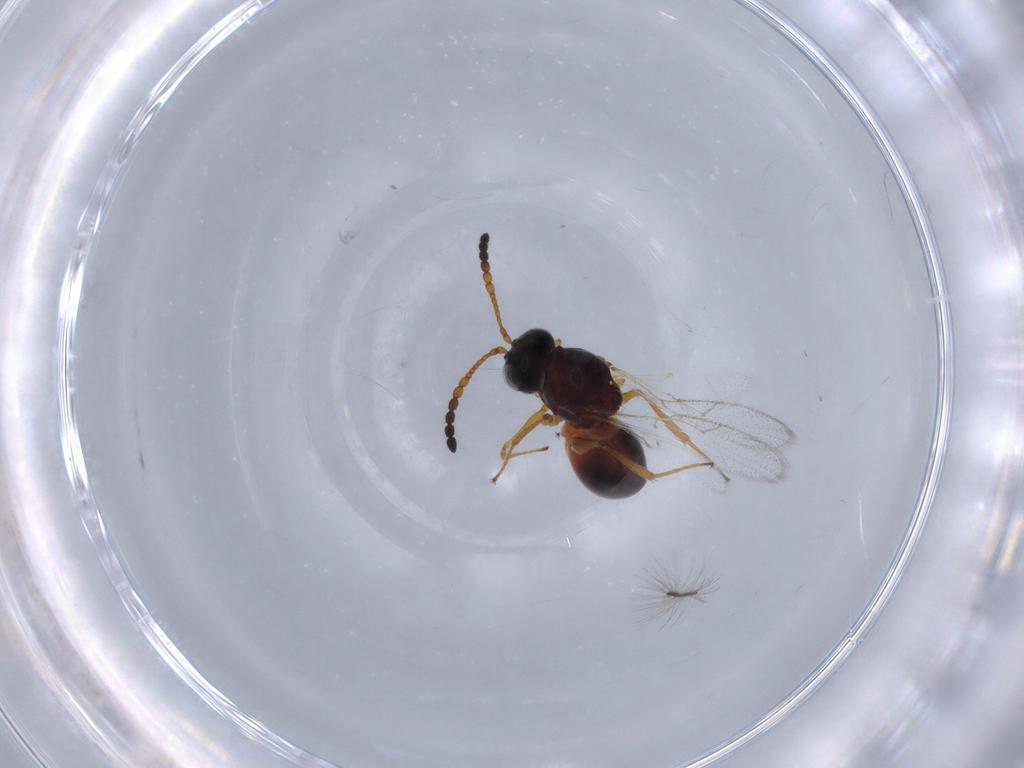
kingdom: Animalia
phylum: Arthropoda
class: Insecta
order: Hymenoptera
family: Figitidae
